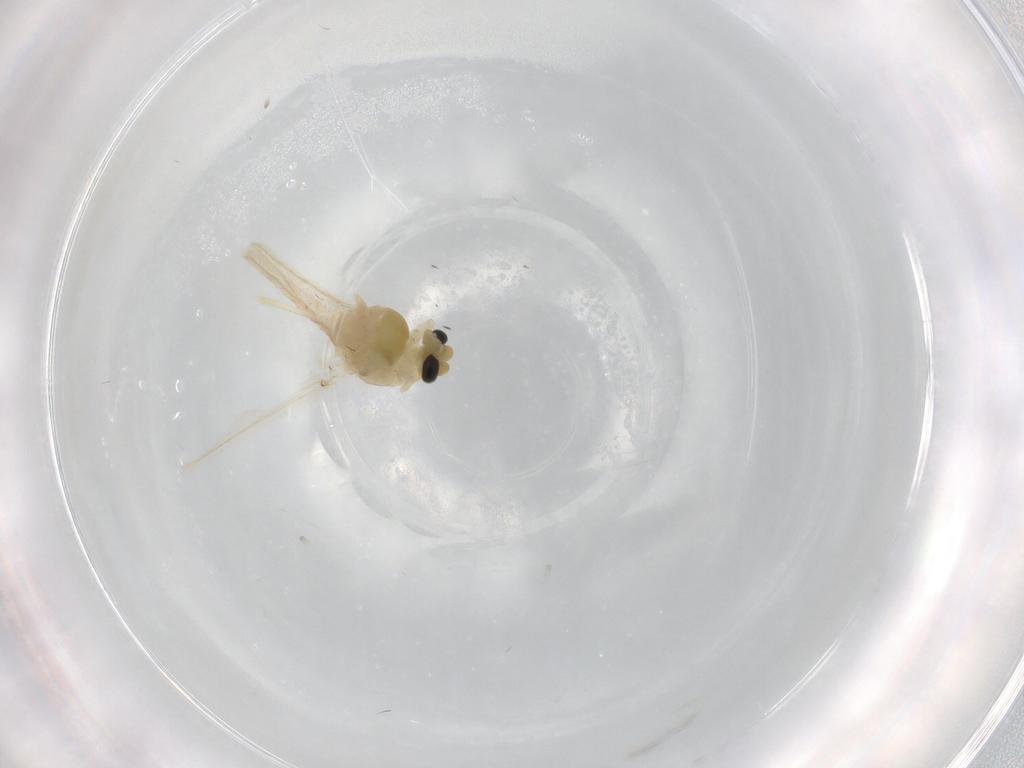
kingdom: Animalia
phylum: Arthropoda
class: Insecta
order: Diptera
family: Chironomidae
